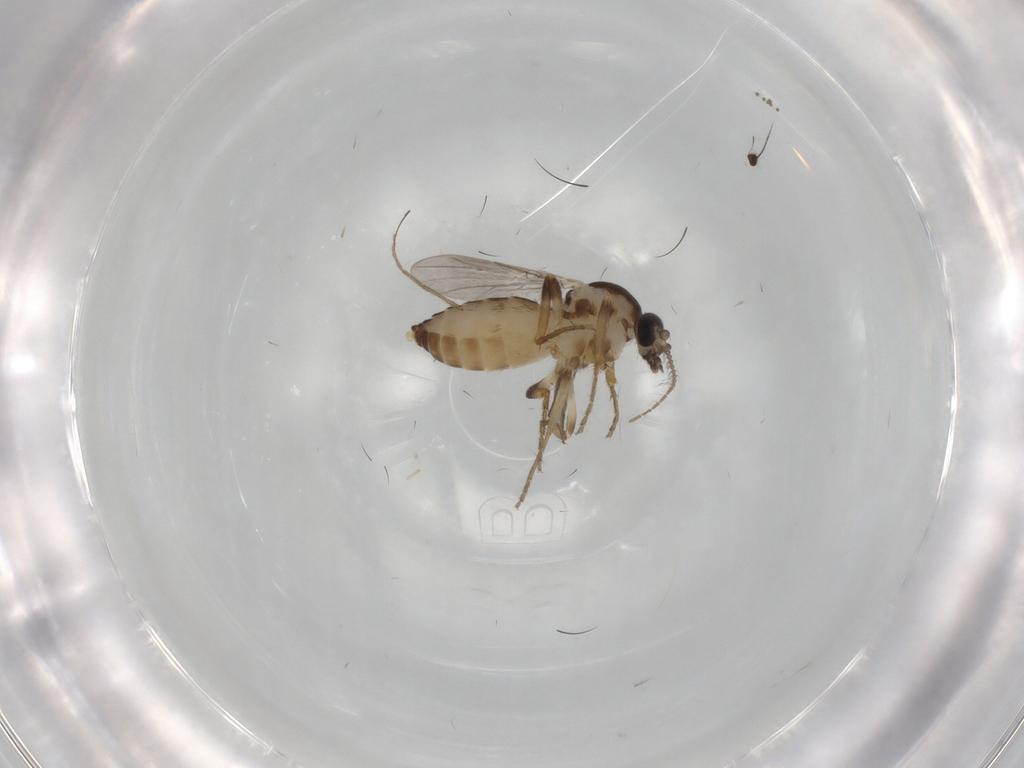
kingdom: Animalia
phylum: Arthropoda
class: Insecta
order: Diptera
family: Ceratopogonidae
